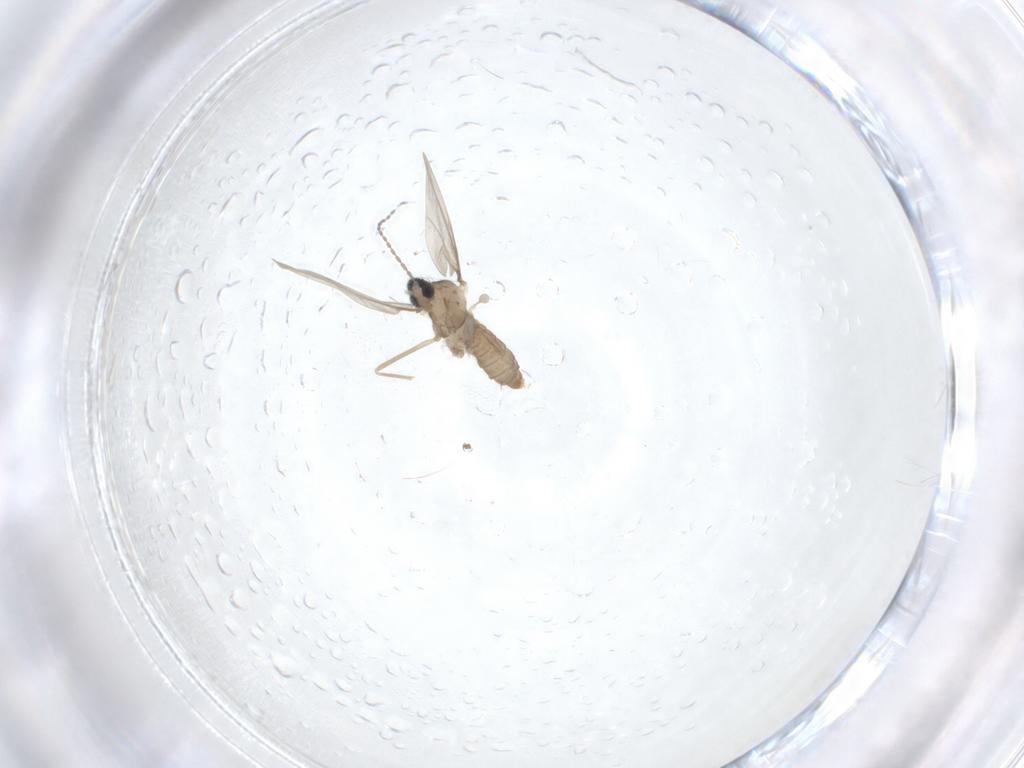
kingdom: Animalia
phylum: Arthropoda
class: Insecta
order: Diptera
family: Cecidomyiidae
